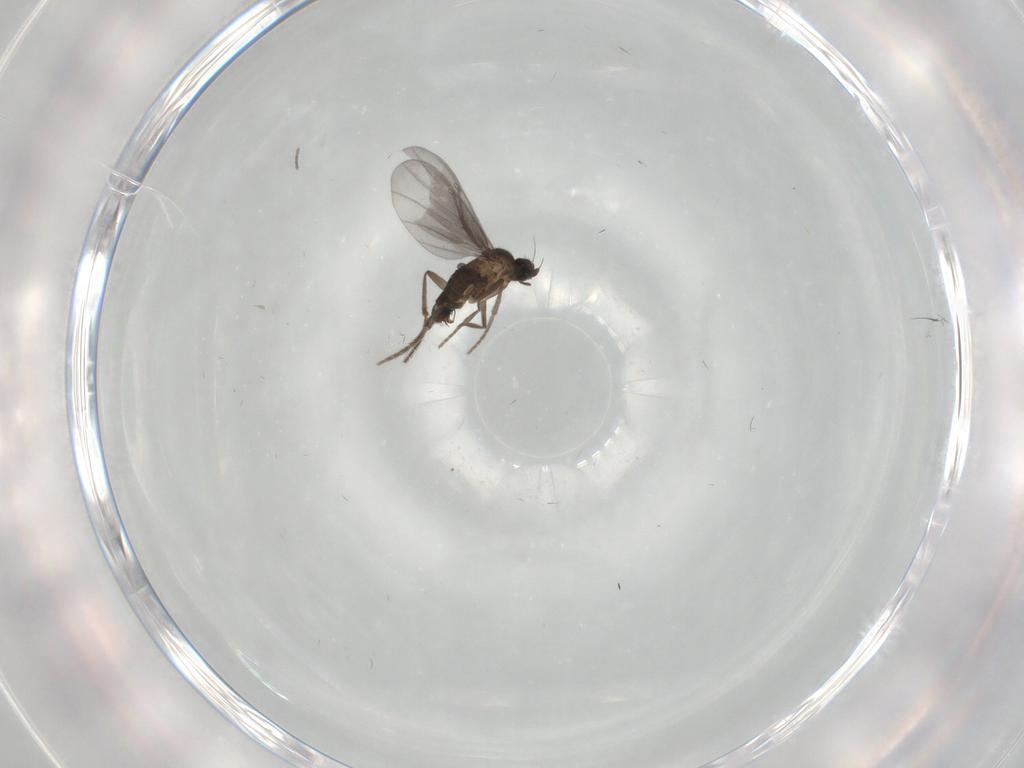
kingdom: Animalia
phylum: Arthropoda
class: Insecta
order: Diptera
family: Phoridae
